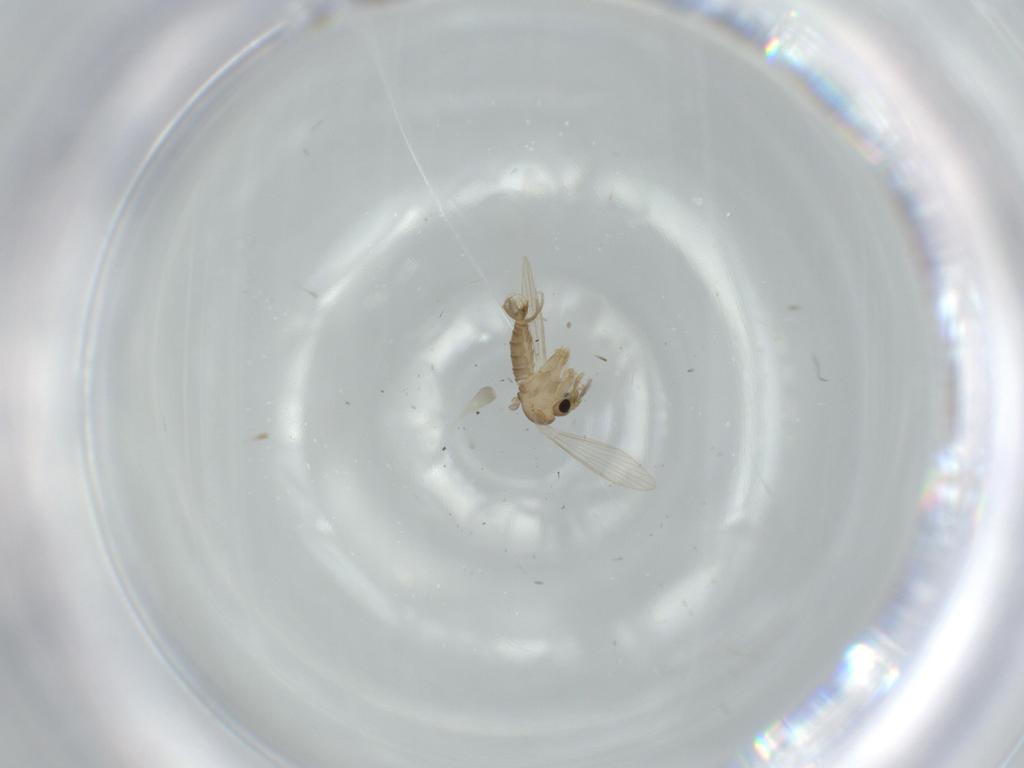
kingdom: Animalia
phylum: Arthropoda
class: Insecta
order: Diptera
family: Psychodidae
